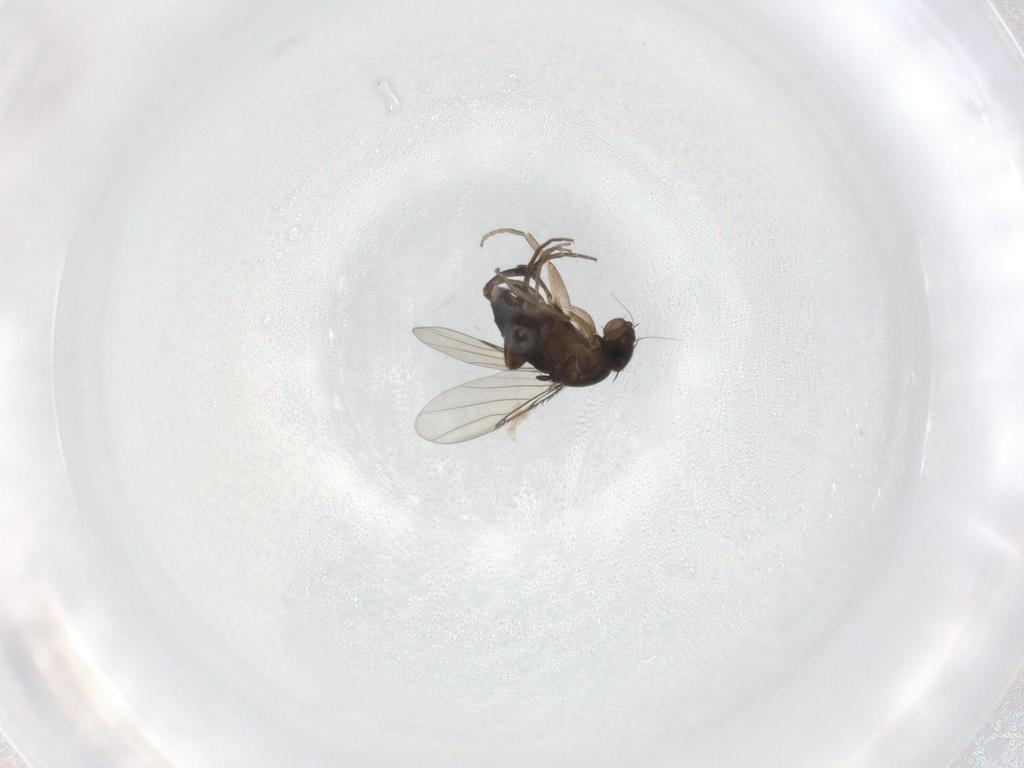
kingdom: Animalia
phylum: Arthropoda
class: Insecta
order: Diptera
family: Phoridae
